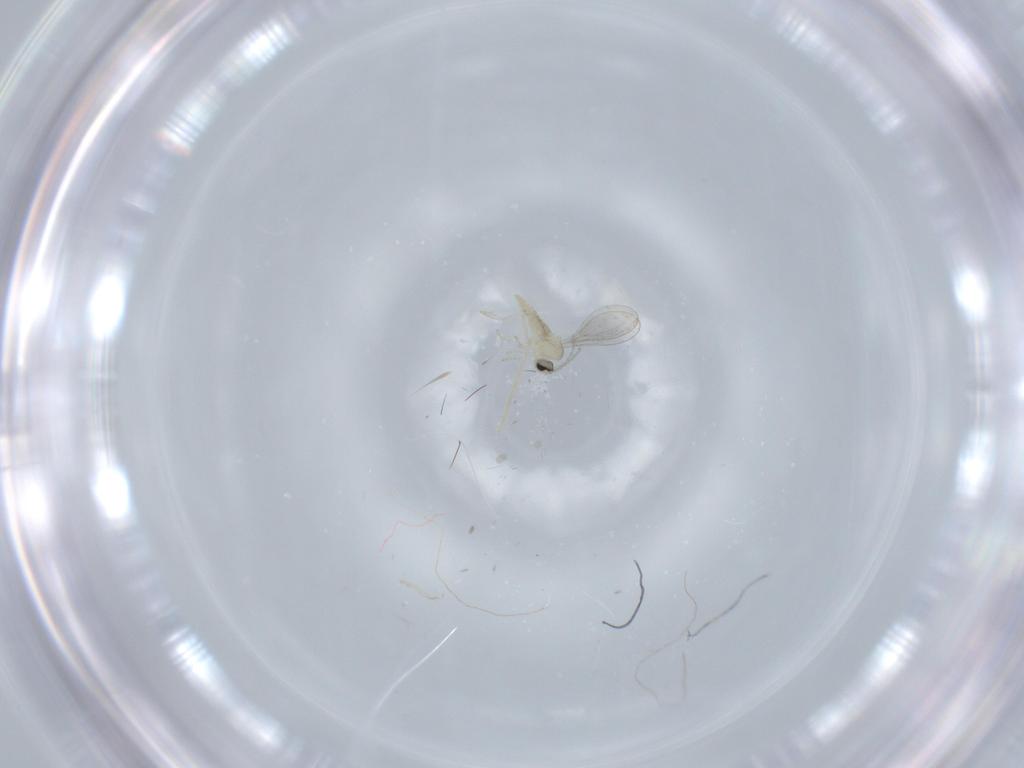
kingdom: Animalia
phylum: Arthropoda
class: Insecta
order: Diptera
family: Cecidomyiidae
